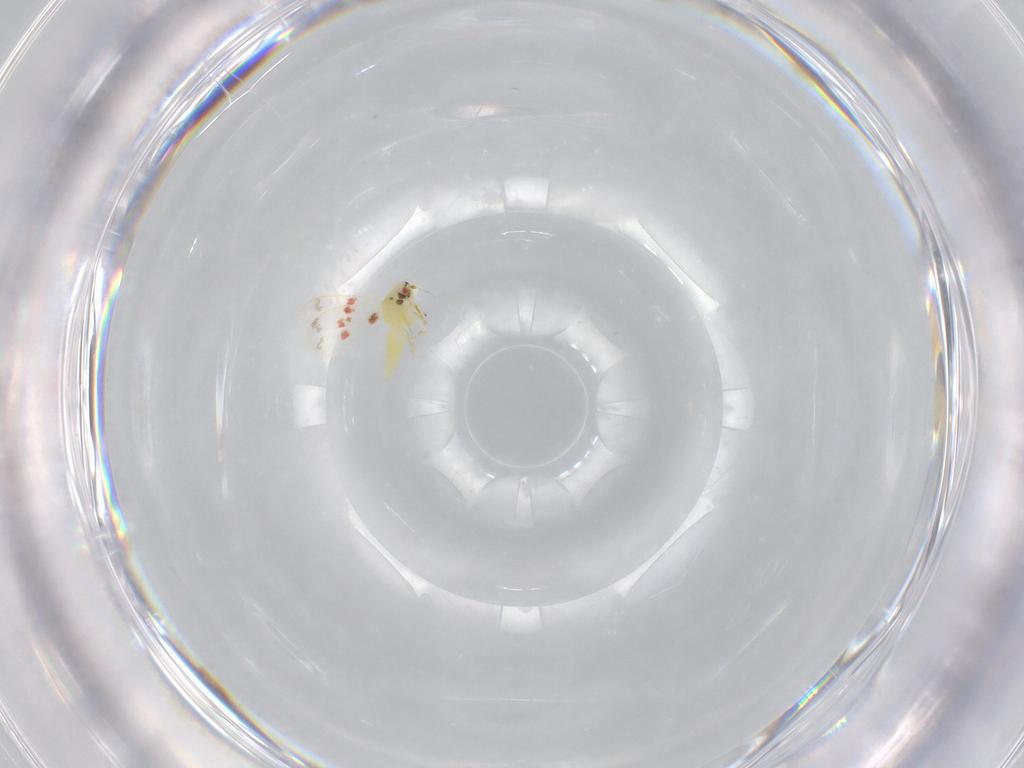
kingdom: Animalia
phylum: Arthropoda
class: Insecta
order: Hemiptera
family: Aleyrodidae
